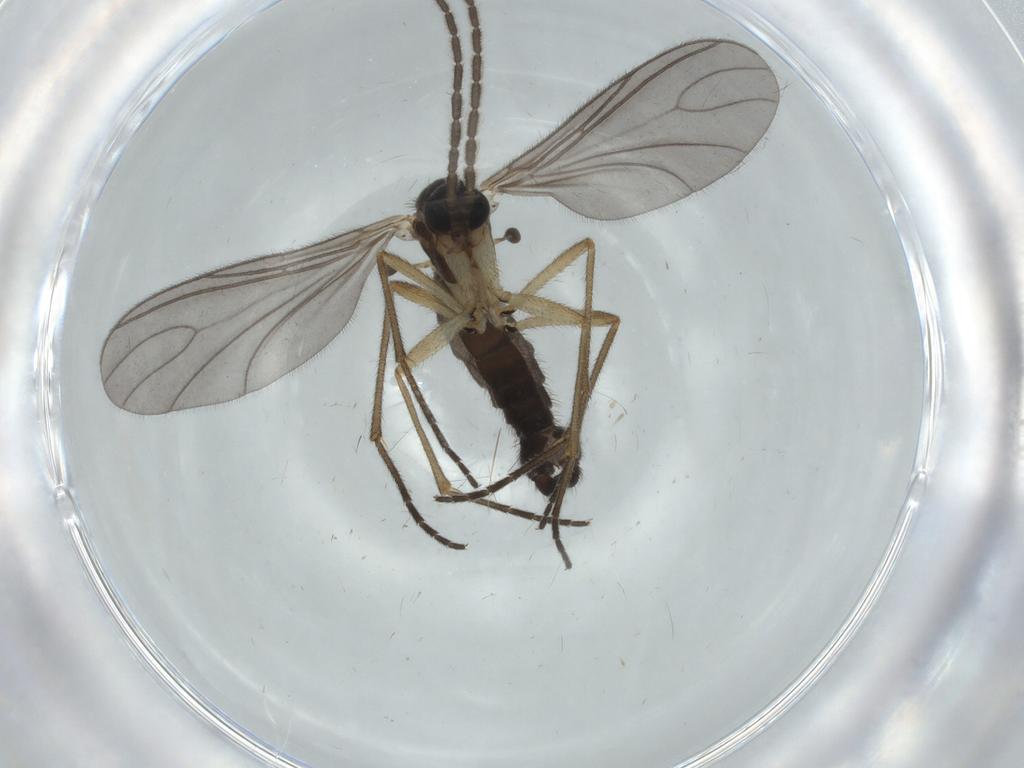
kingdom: Animalia
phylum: Arthropoda
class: Insecta
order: Diptera
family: Sciaridae
